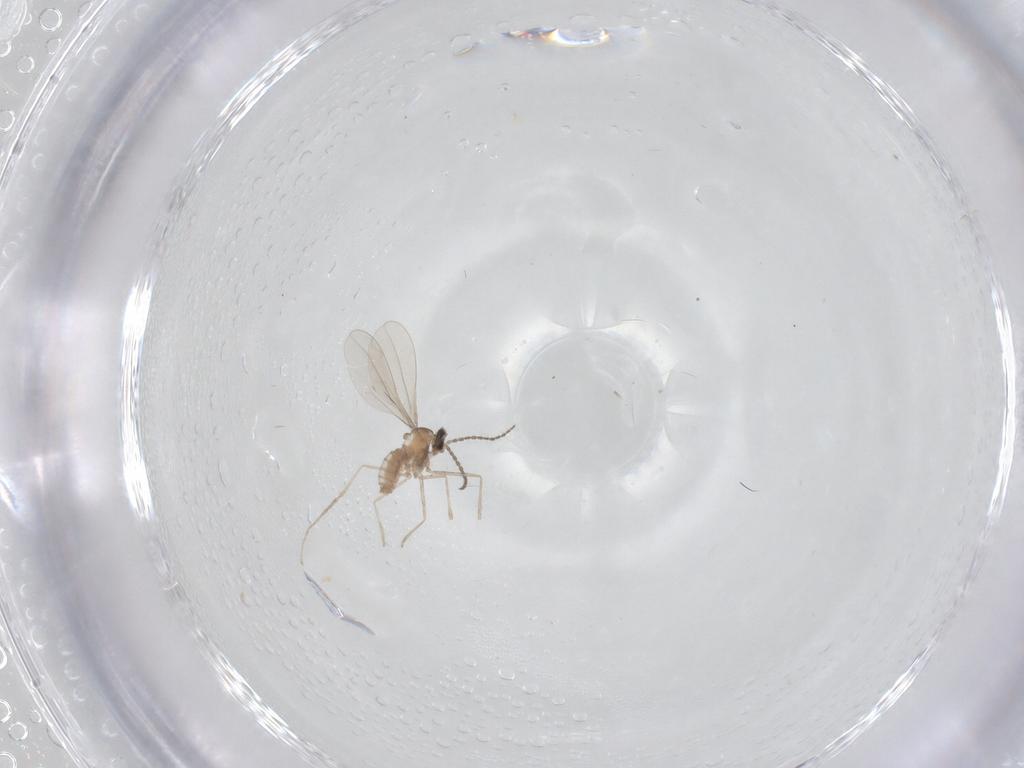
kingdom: Animalia
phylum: Arthropoda
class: Insecta
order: Diptera
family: Cecidomyiidae
